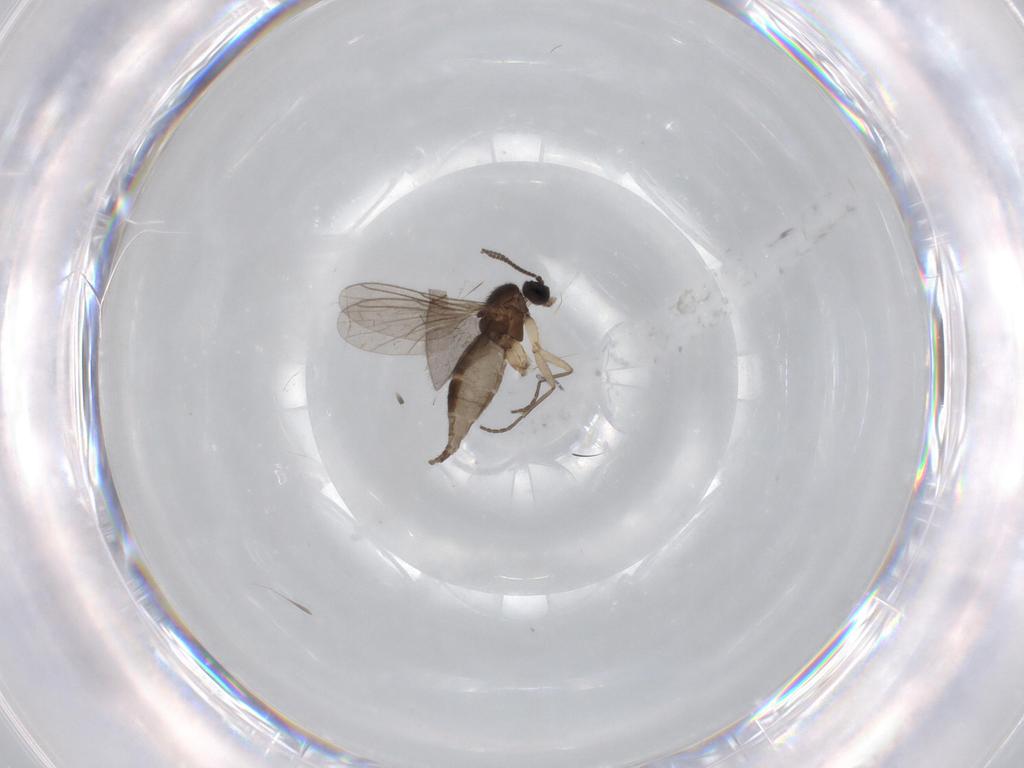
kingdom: Animalia
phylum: Arthropoda
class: Insecta
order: Diptera
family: Sciaridae
